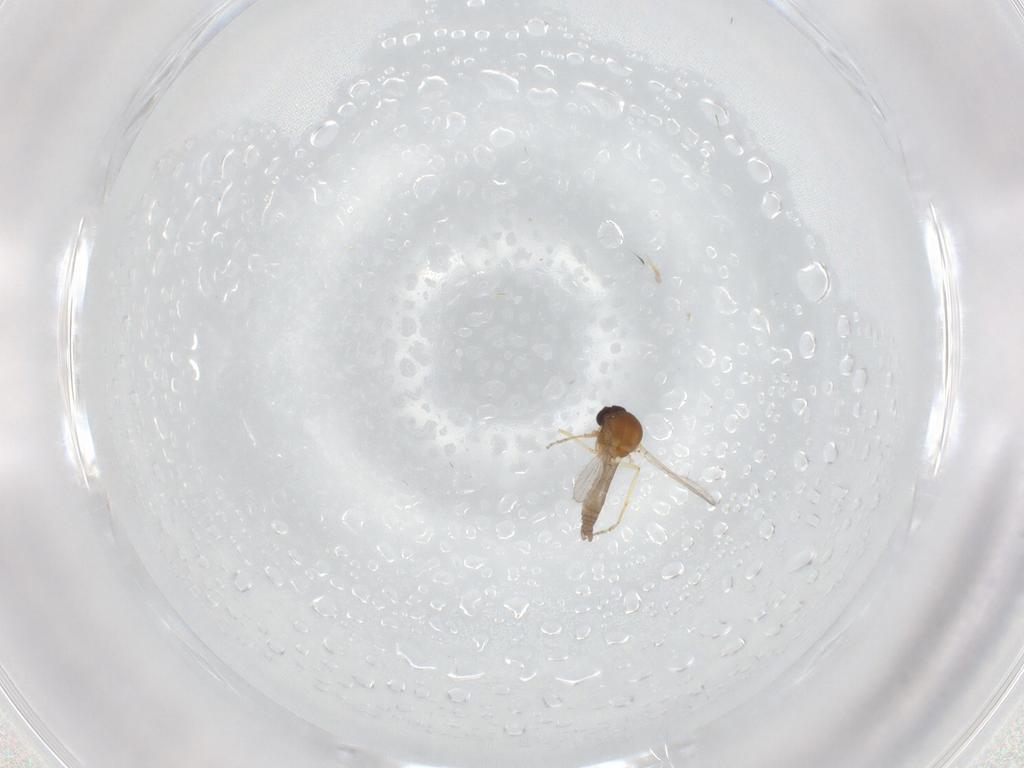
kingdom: Animalia
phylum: Arthropoda
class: Insecta
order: Diptera
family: Ceratopogonidae
